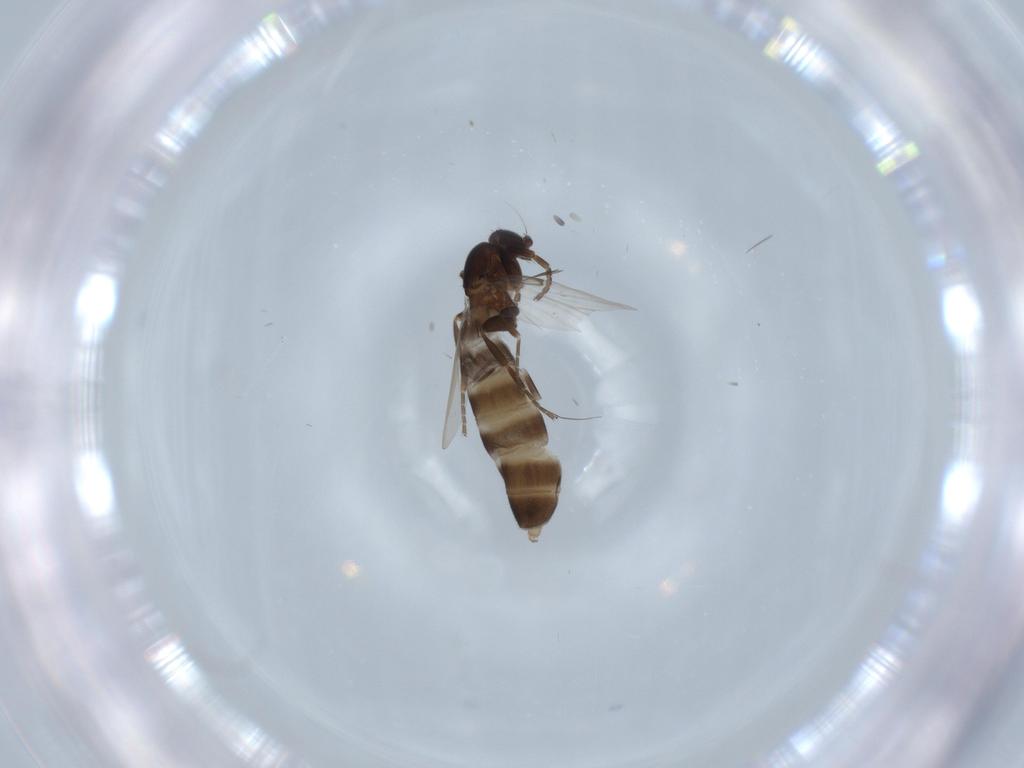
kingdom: Animalia
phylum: Arthropoda
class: Insecta
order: Diptera
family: Phoridae
